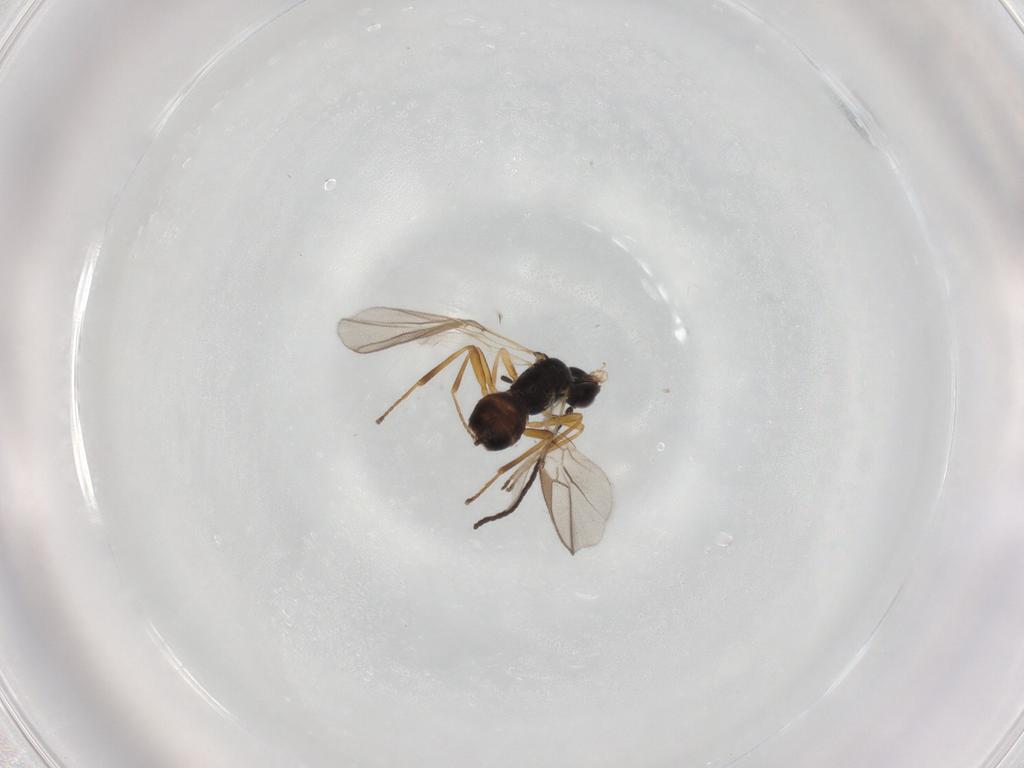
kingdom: Animalia
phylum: Arthropoda
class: Insecta
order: Hymenoptera
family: Braconidae
